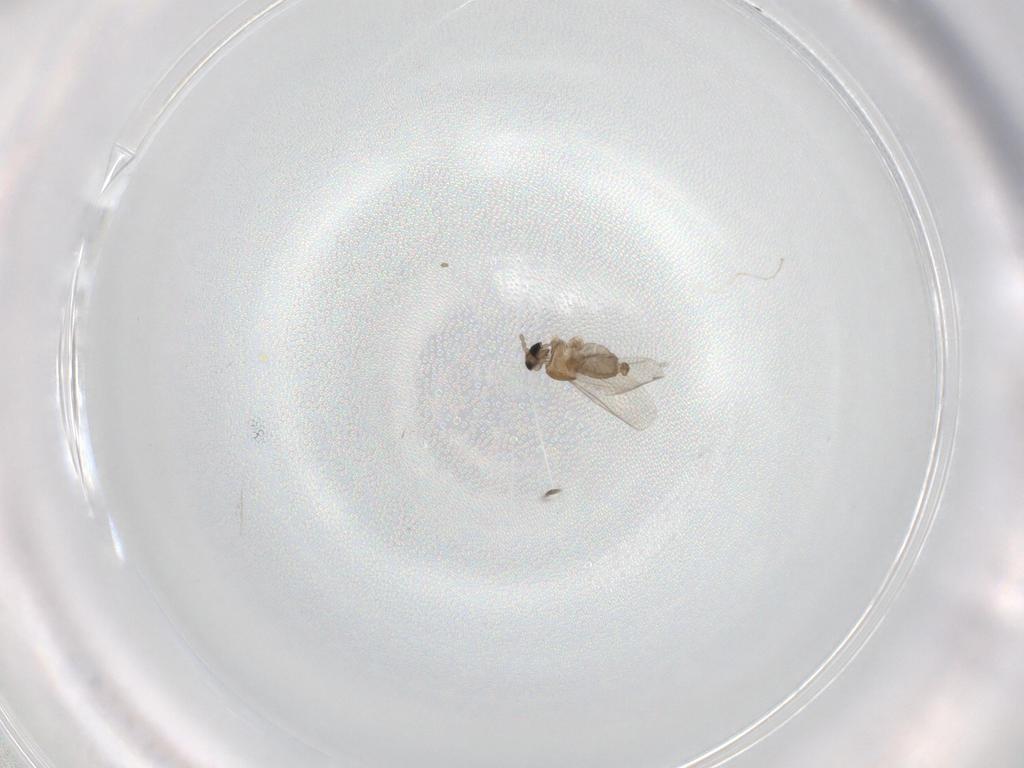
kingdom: Animalia
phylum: Arthropoda
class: Insecta
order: Diptera
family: Cecidomyiidae
